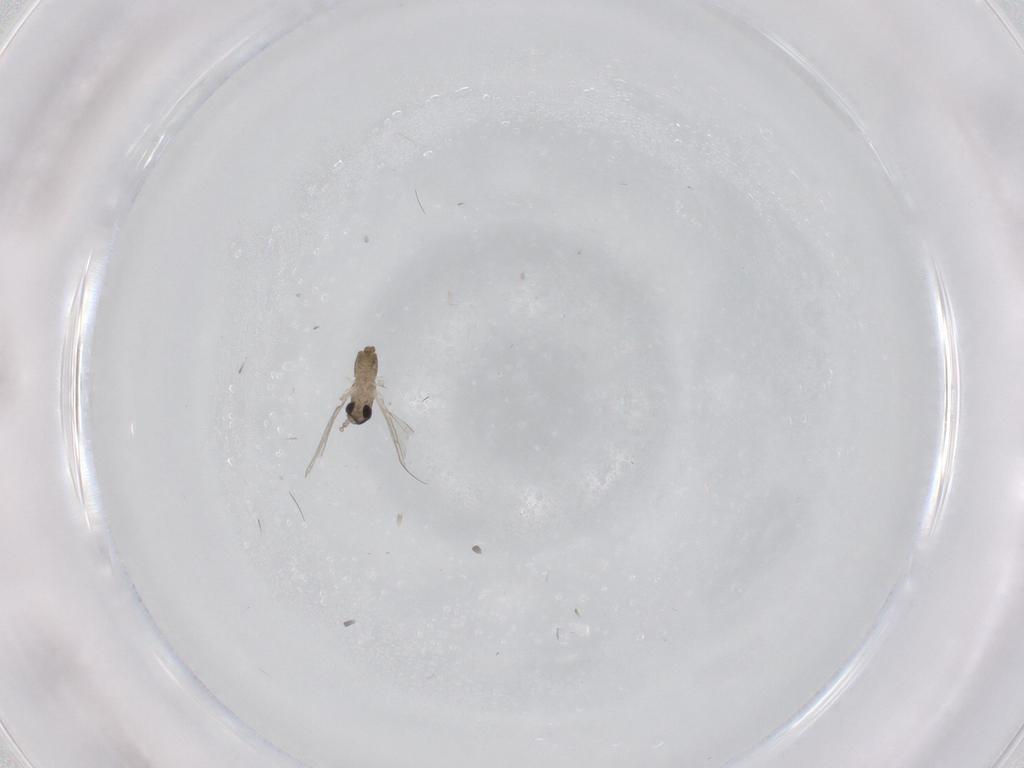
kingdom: Animalia
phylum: Arthropoda
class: Insecta
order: Diptera
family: Cecidomyiidae
